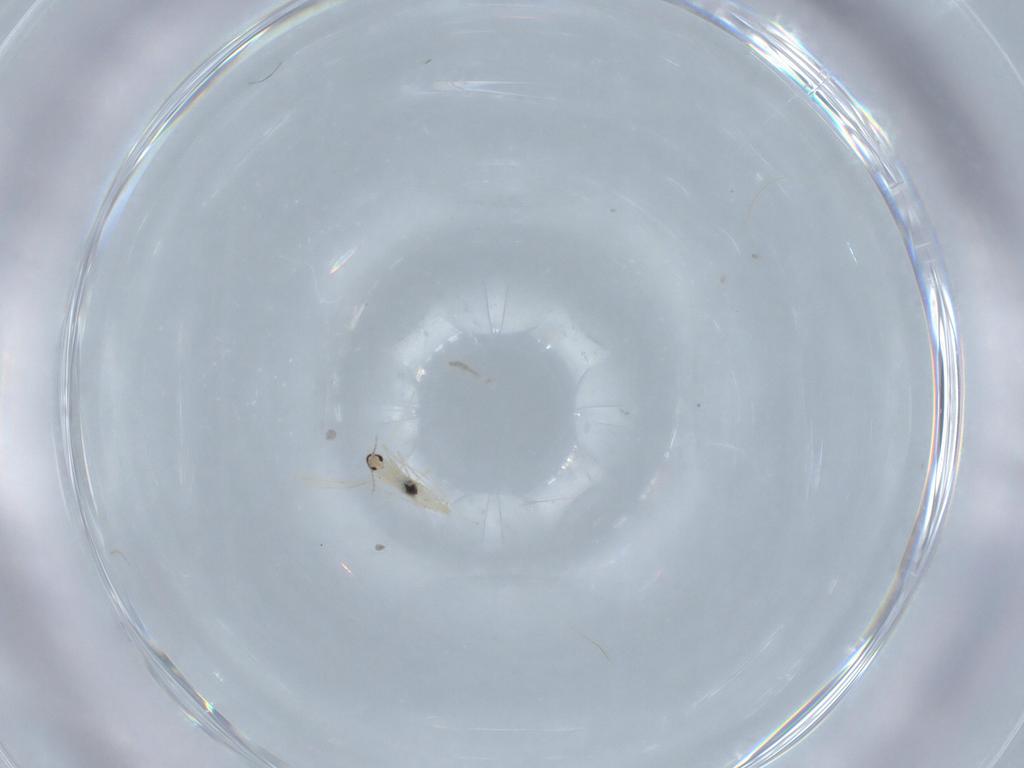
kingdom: Animalia
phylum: Arthropoda
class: Insecta
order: Diptera
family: Cecidomyiidae
